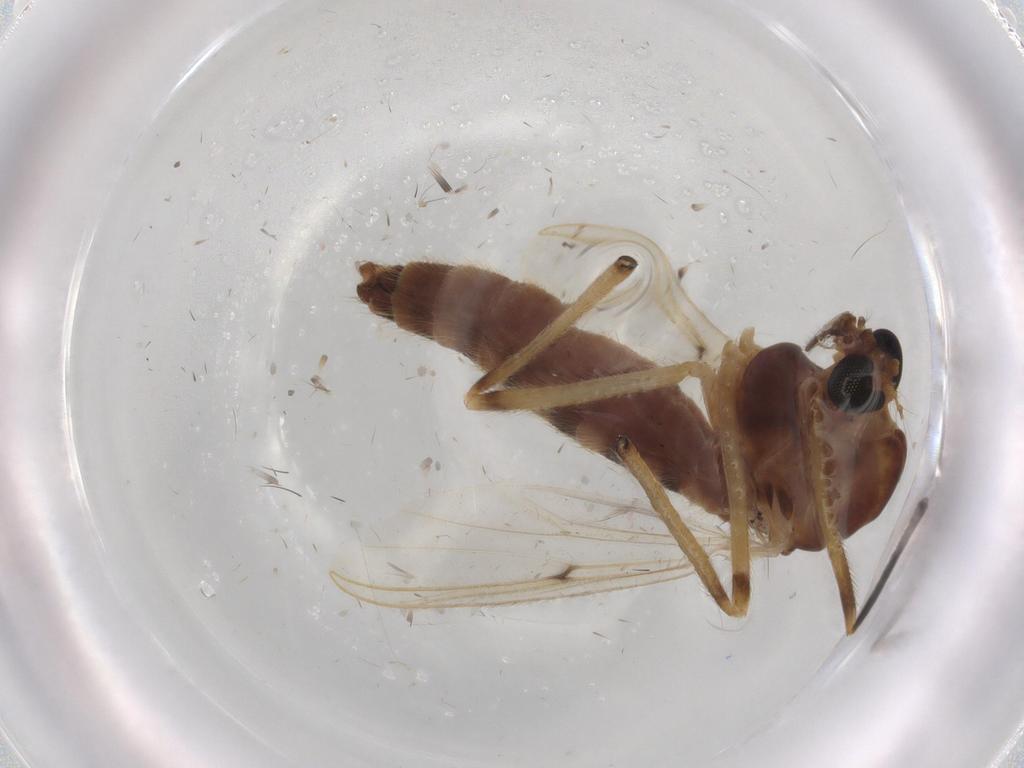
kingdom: Animalia
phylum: Arthropoda
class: Insecta
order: Diptera
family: Chironomidae
